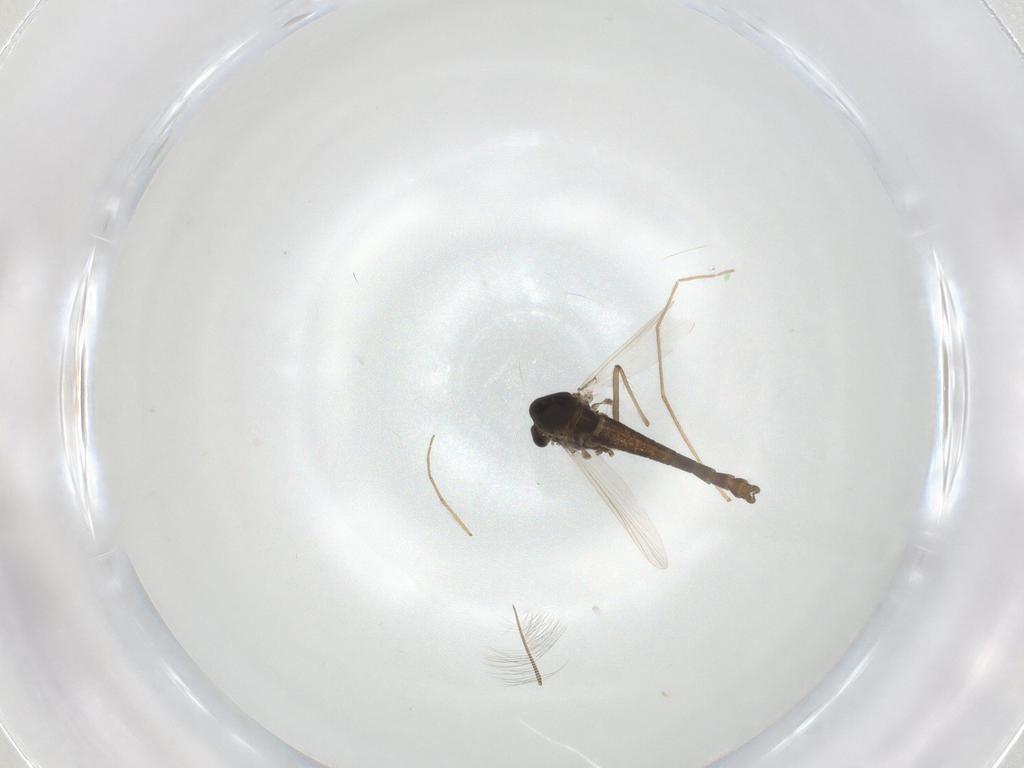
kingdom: Animalia
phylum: Arthropoda
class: Insecta
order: Diptera
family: Chironomidae
